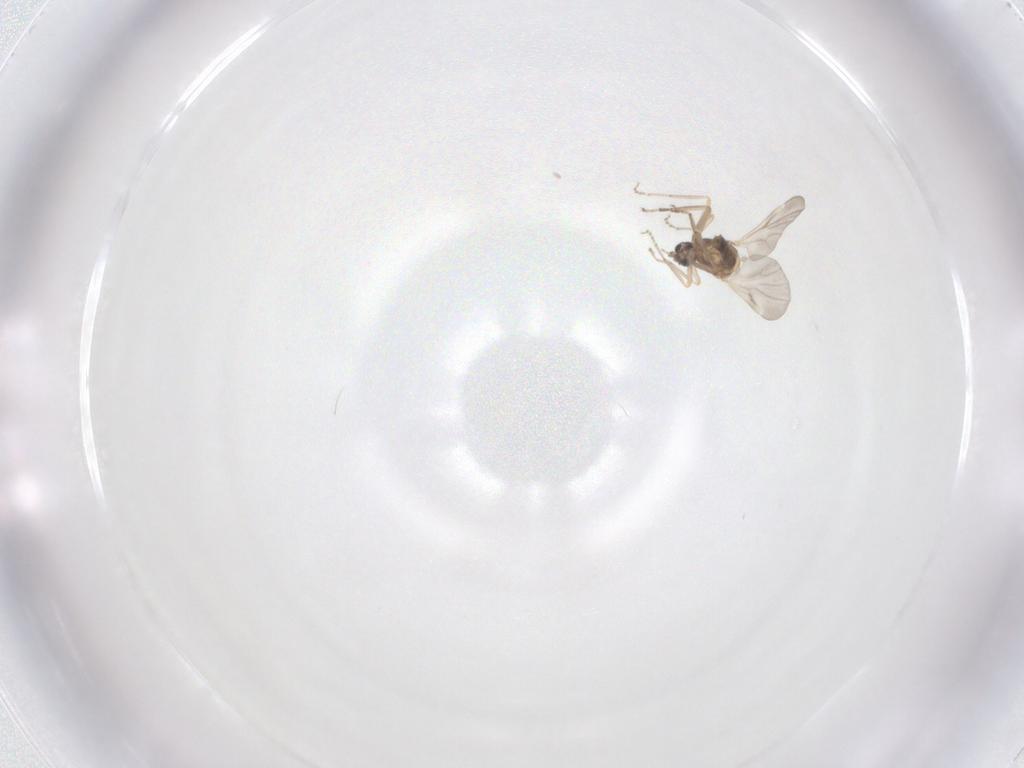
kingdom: Animalia
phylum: Arthropoda
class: Insecta
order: Diptera
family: Ceratopogonidae
